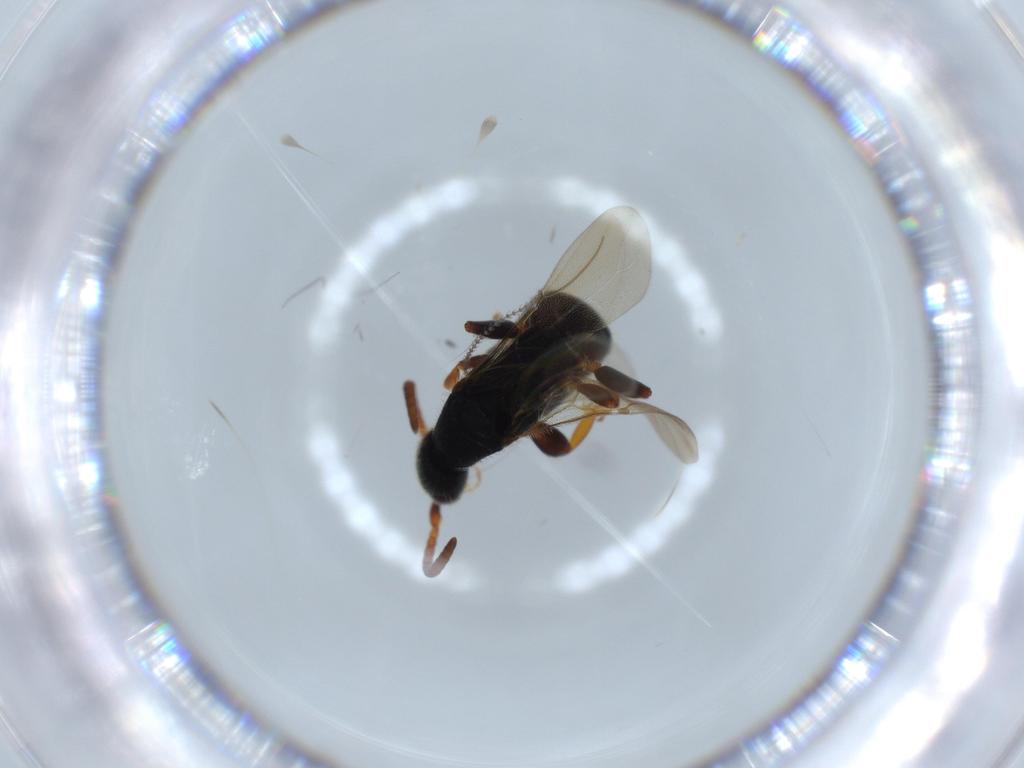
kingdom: Animalia
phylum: Arthropoda
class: Insecta
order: Hymenoptera
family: Bethylidae
